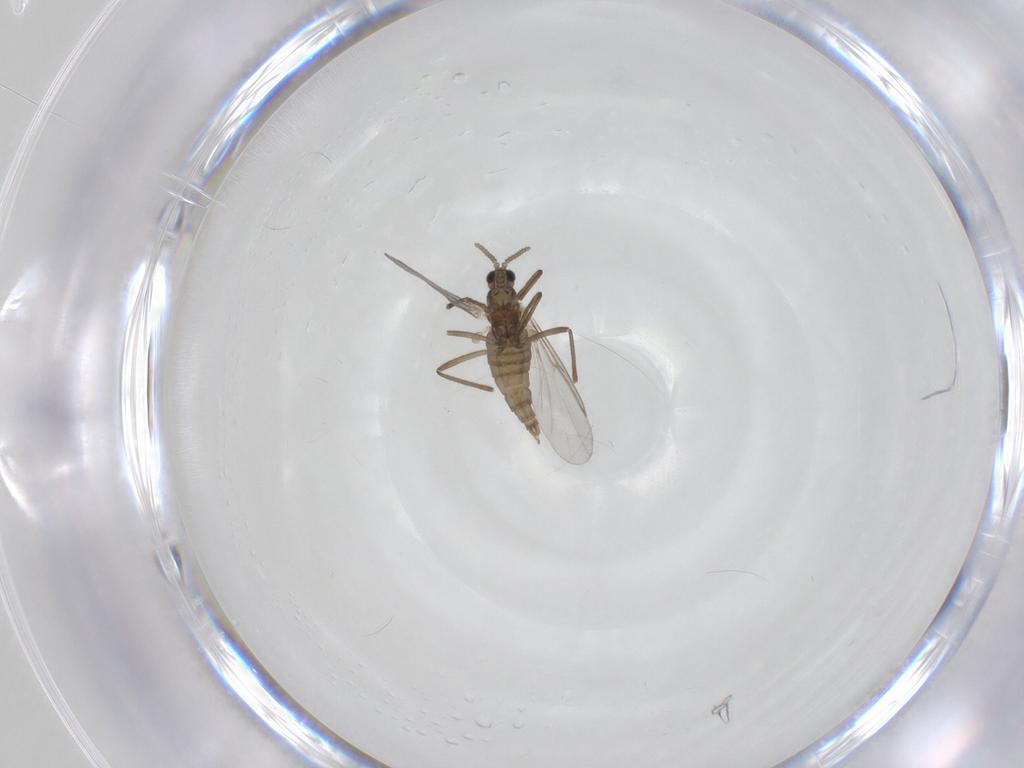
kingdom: Animalia
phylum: Arthropoda
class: Insecta
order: Diptera
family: Cecidomyiidae
